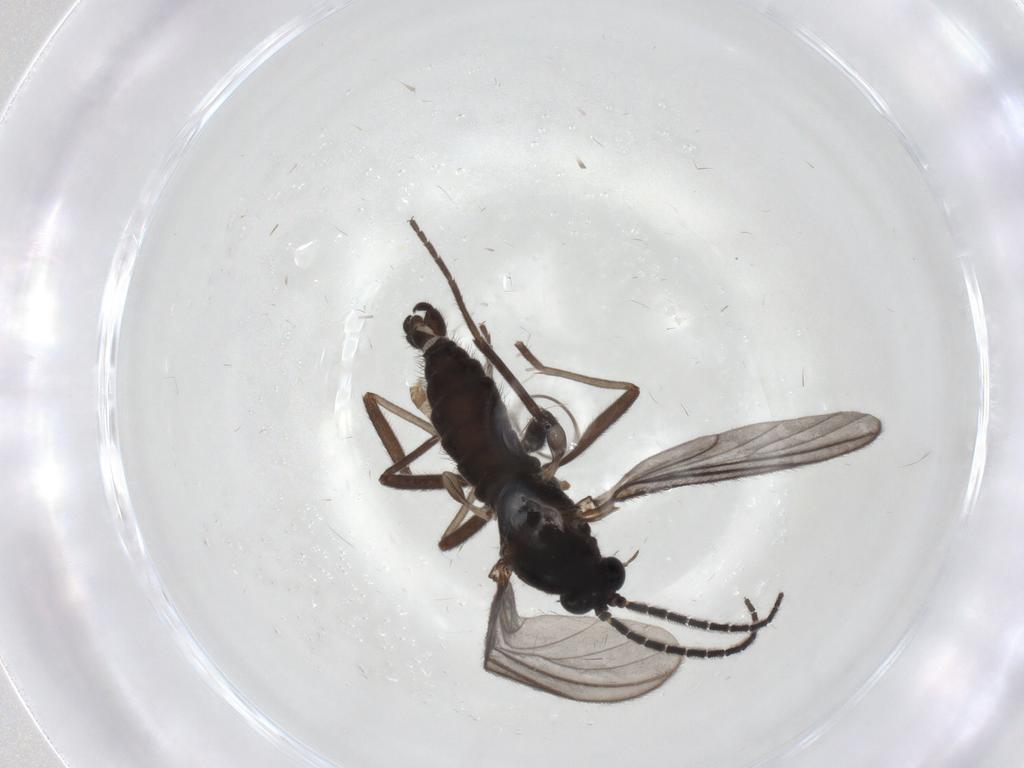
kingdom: Animalia
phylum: Arthropoda
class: Insecta
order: Diptera
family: Sciaridae
